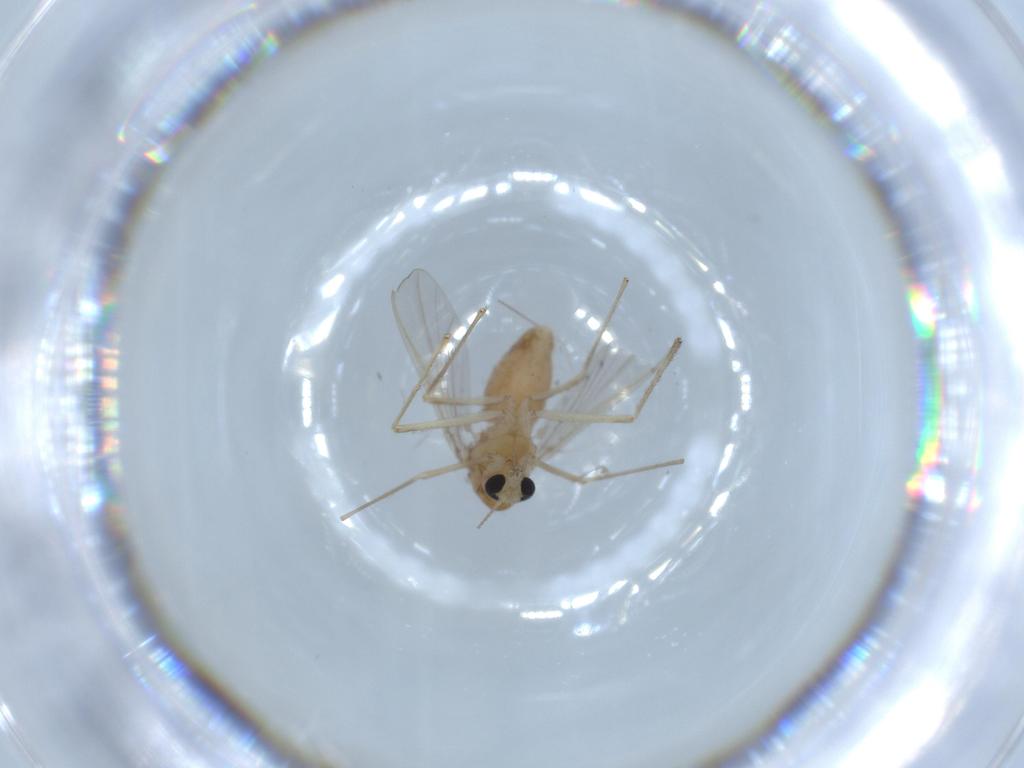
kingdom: Animalia
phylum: Arthropoda
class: Insecta
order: Diptera
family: Chironomidae
